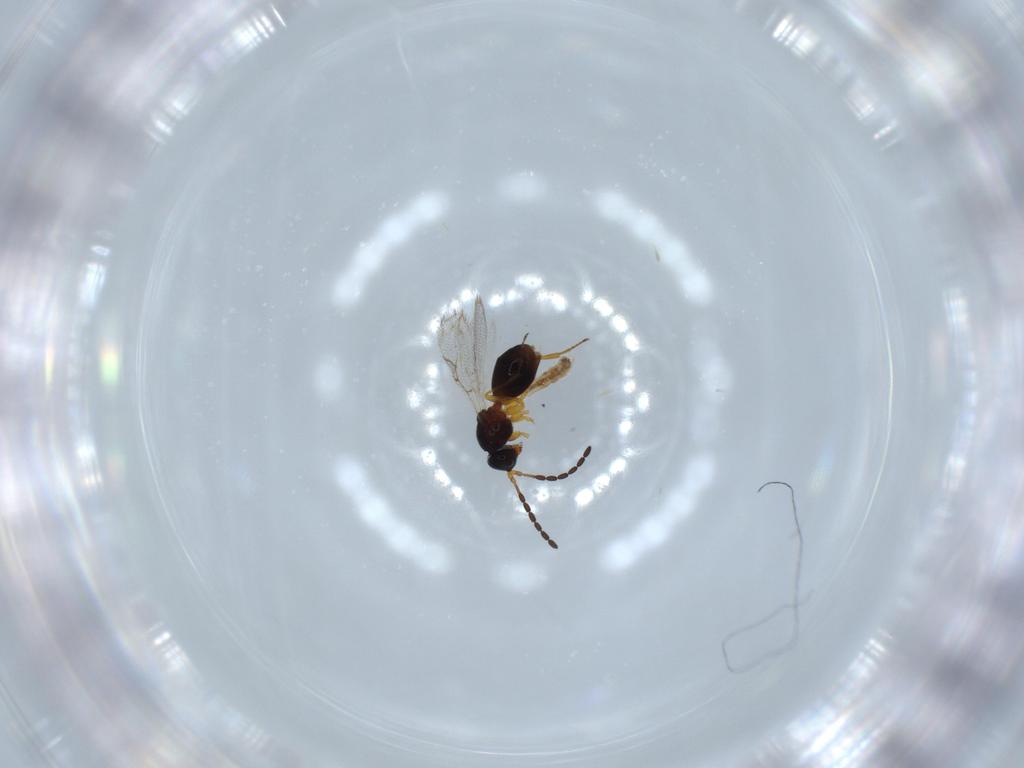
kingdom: Animalia
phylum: Arthropoda
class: Insecta
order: Hymenoptera
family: Figitidae
